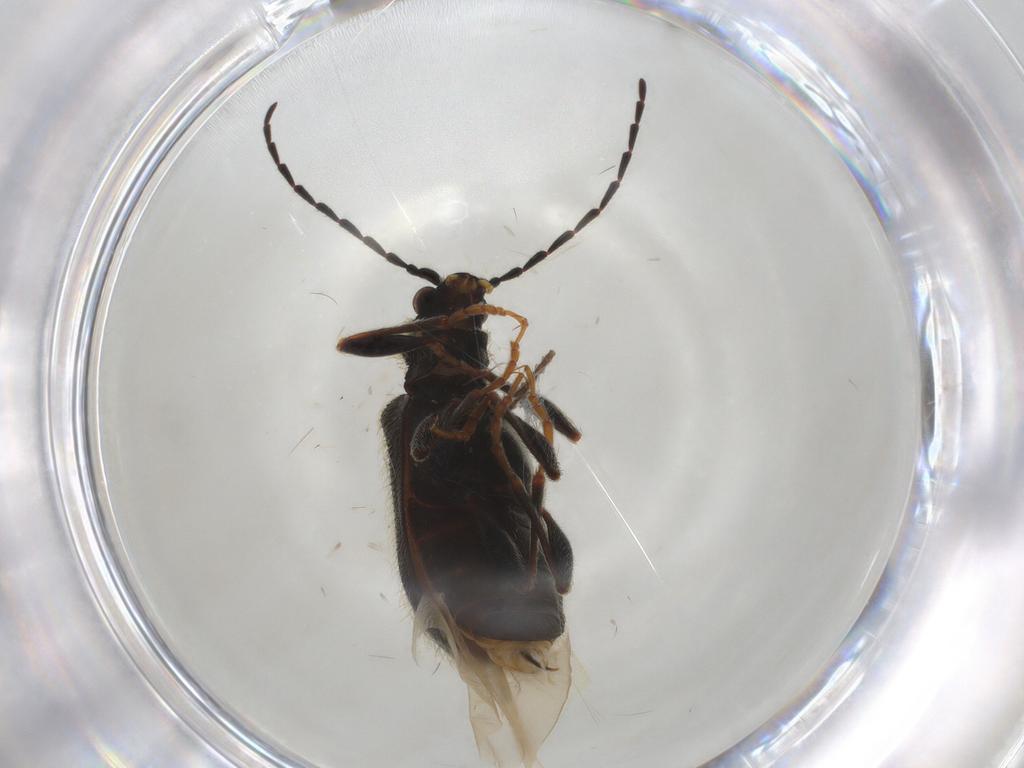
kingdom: Animalia
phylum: Arthropoda
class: Insecta
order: Coleoptera
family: Ptinidae
